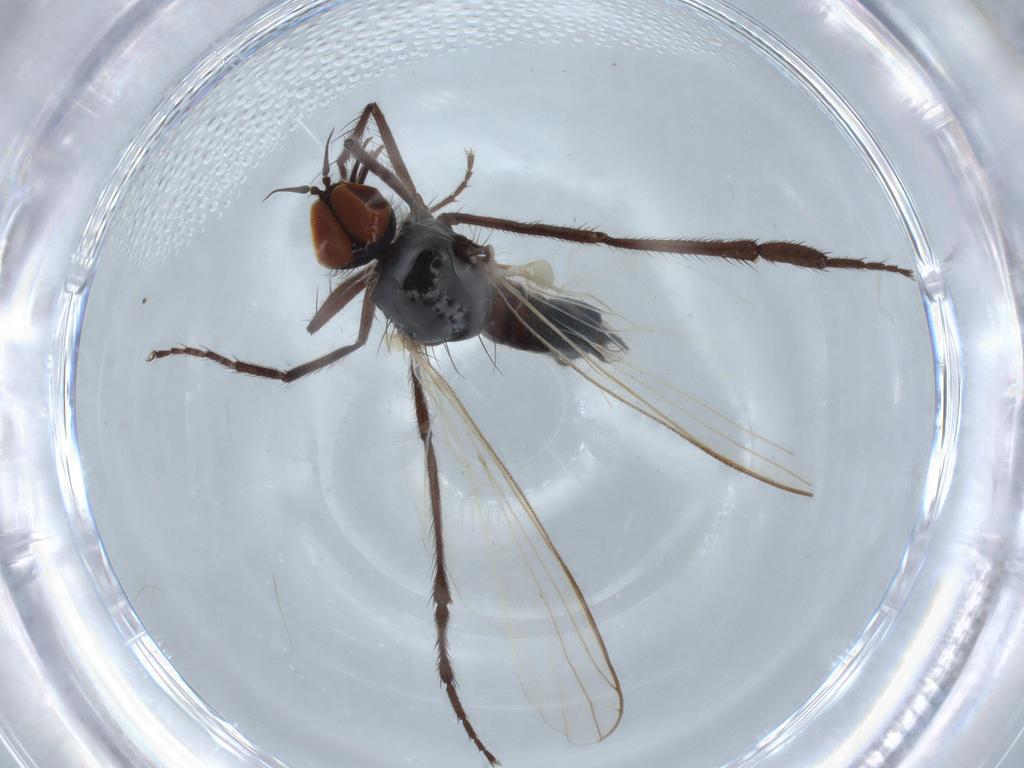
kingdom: Animalia
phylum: Arthropoda
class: Insecta
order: Diptera
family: Empididae
